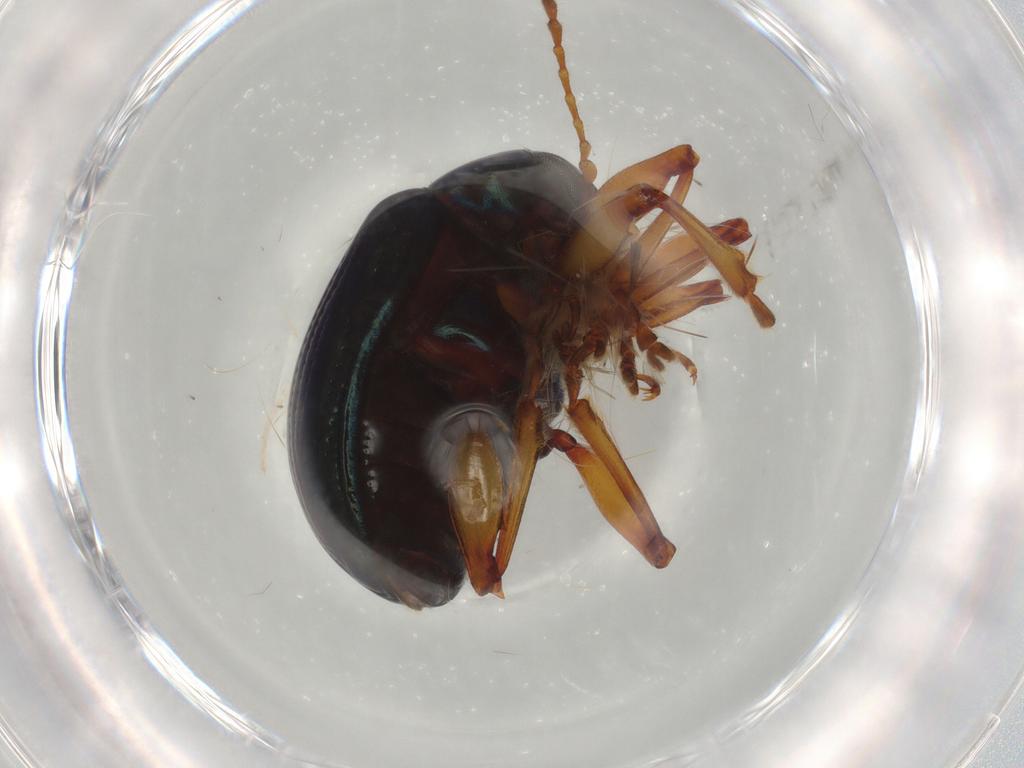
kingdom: Animalia
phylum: Arthropoda
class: Insecta
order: Coleoptera
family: Chrysomelidae
